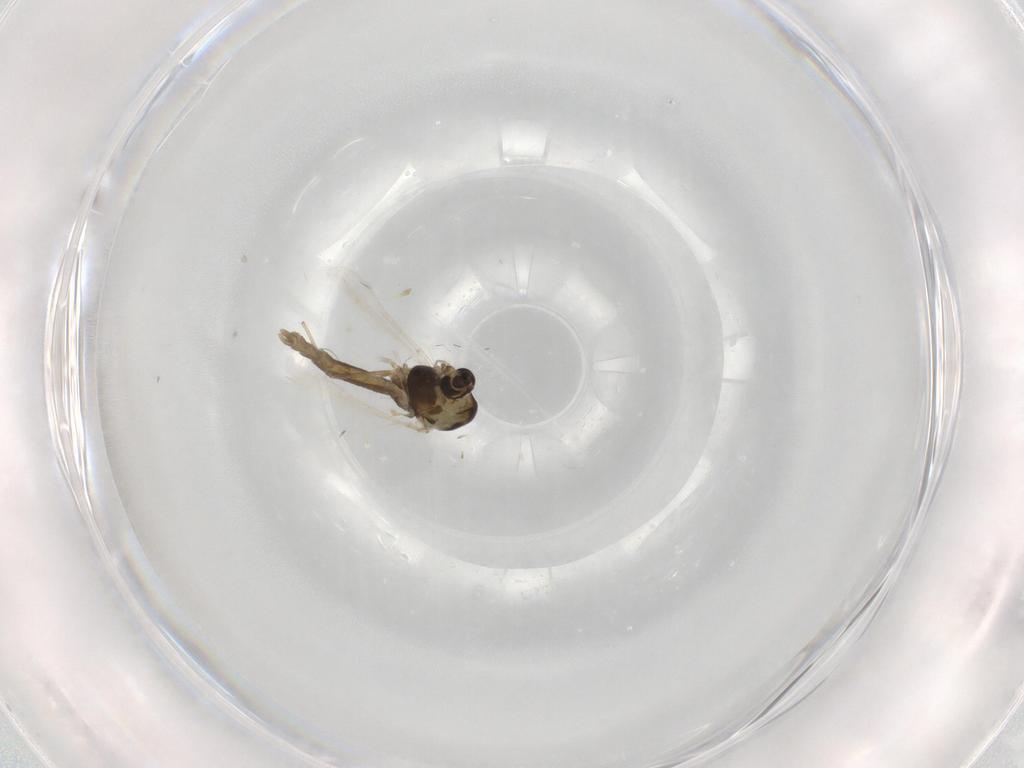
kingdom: Animalia
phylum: Arthropoda
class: Insecta
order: Diptera
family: Chironomidae
